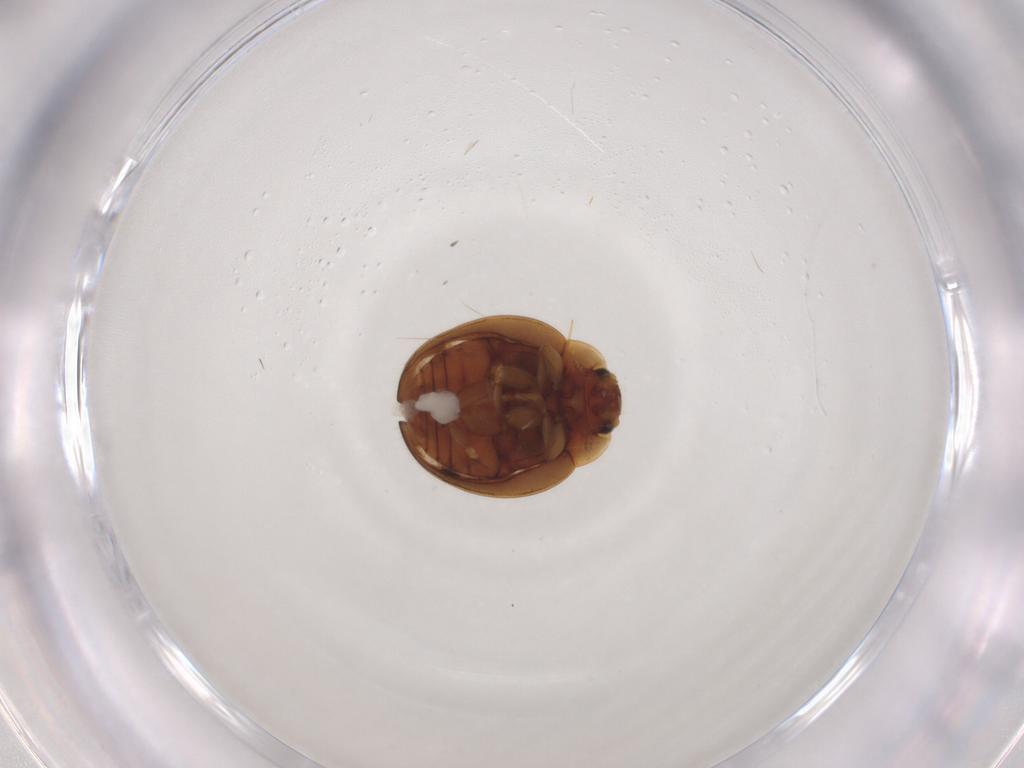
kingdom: Animalia
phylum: Arthropoda
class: Insecta
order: Coleoptera
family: Coccinellidae
